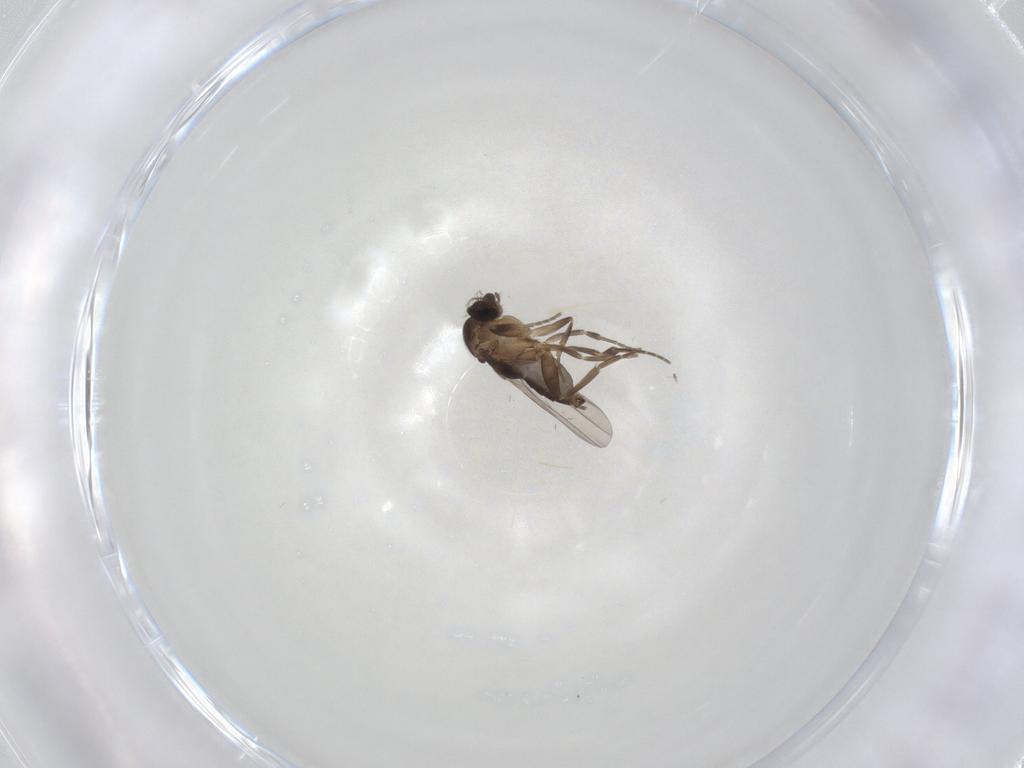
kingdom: Animalia
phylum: Arthropoda
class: Insecta
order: Diptera
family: Phoridae
